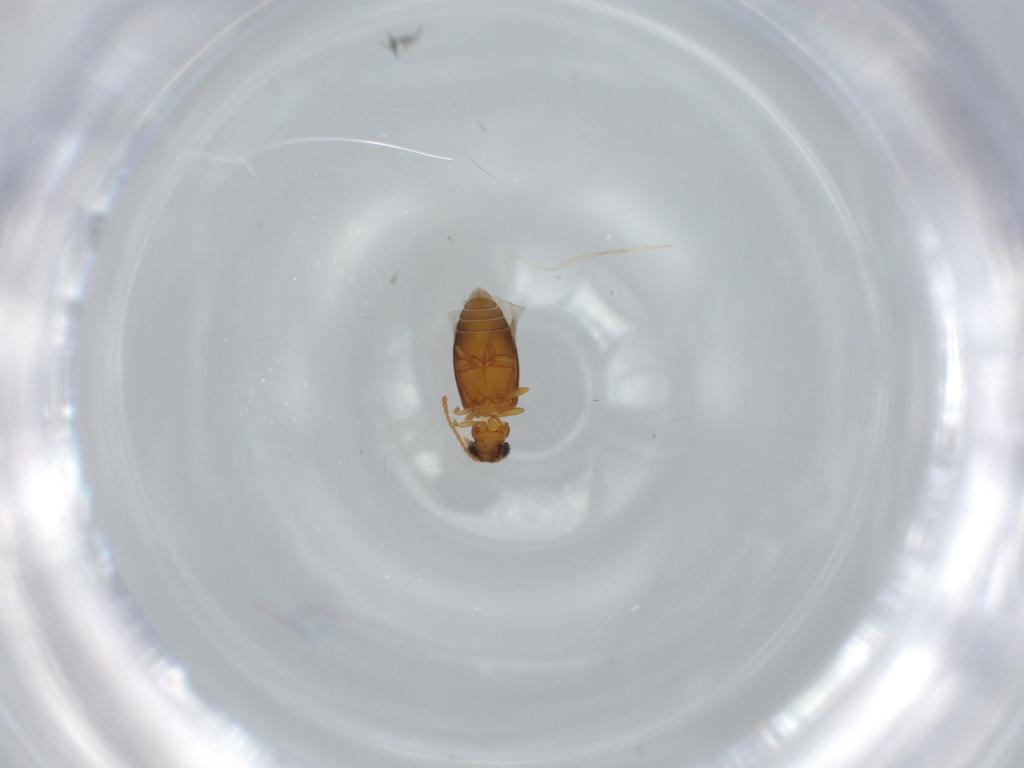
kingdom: Animalia
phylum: Arthropoda
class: Insecta
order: Coleoptera
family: Aderidae
